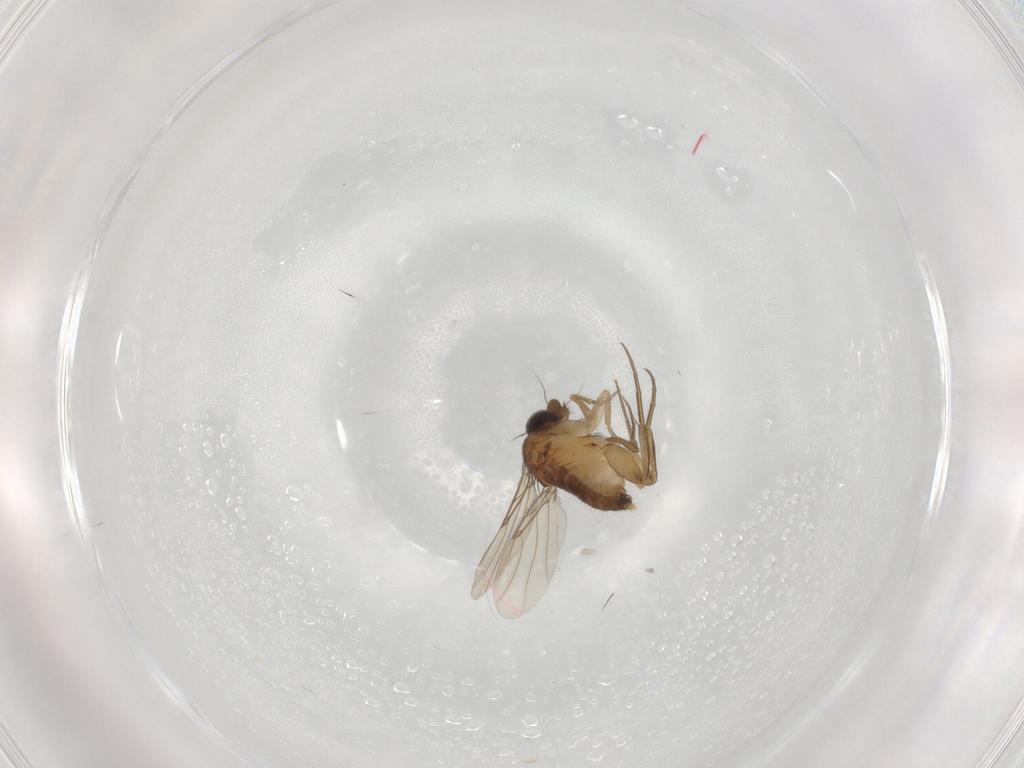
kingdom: Animalia
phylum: Arthropoda
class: Insecta
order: Diptera
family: Phoridae
